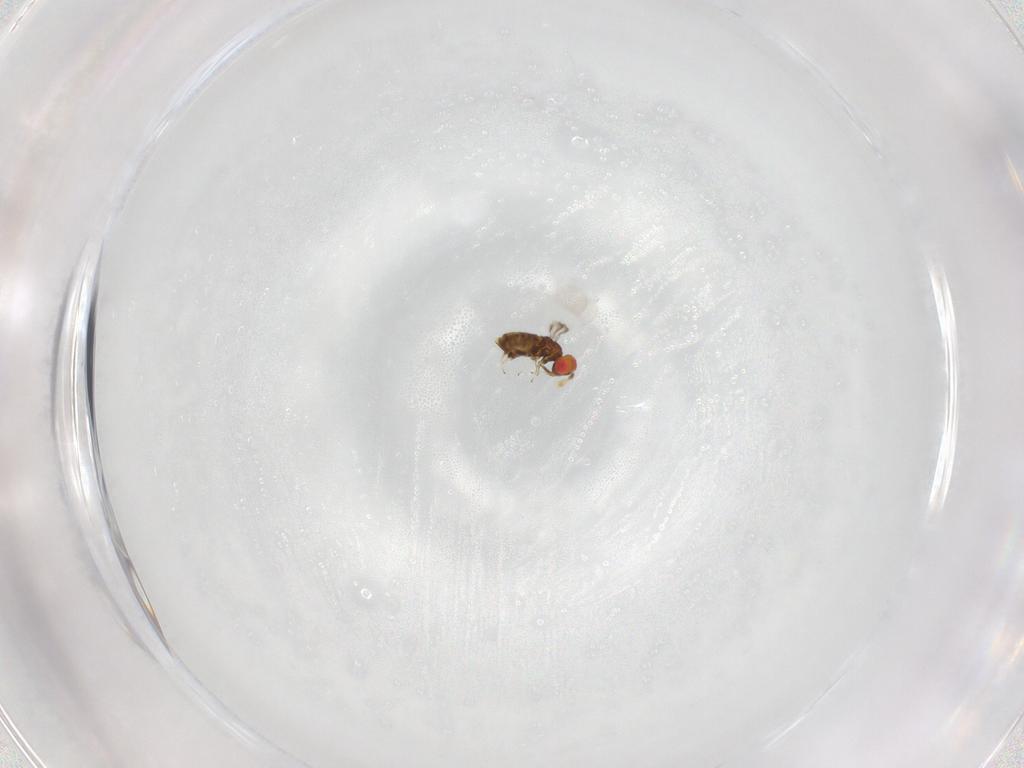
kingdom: Animalia
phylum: Arthropoda
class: Insecta
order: Hymenoptera
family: Trichogrammatidae
